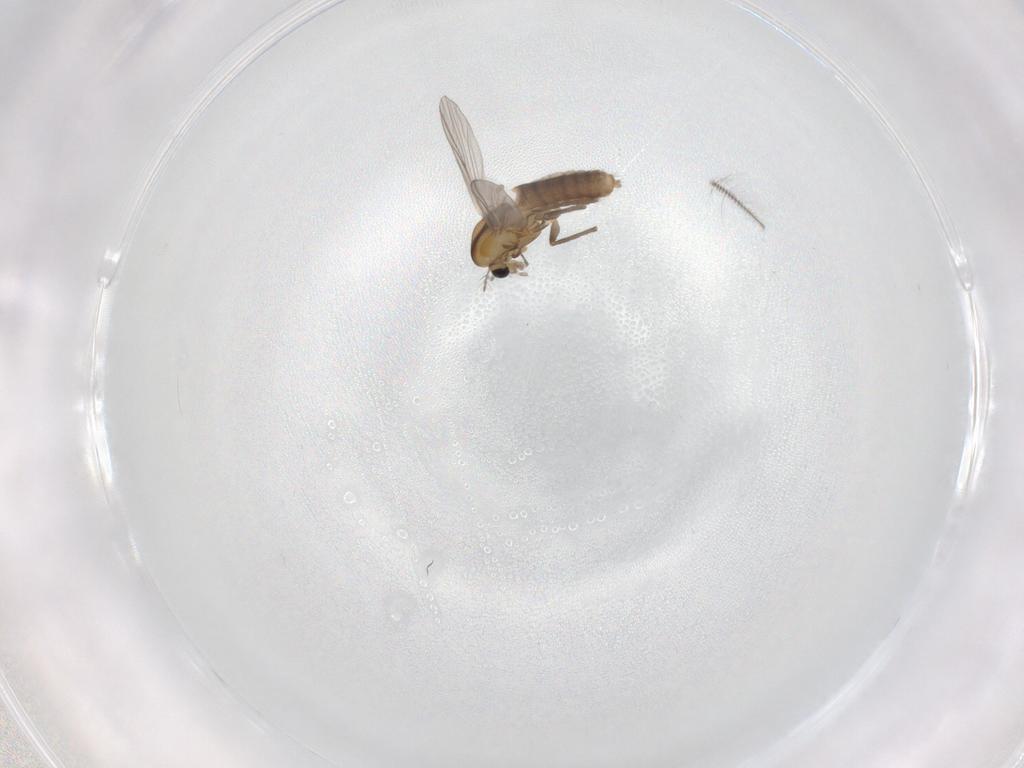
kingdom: Animalia
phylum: Arthropoda
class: Insecta
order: Diptera
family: Chironomidae
